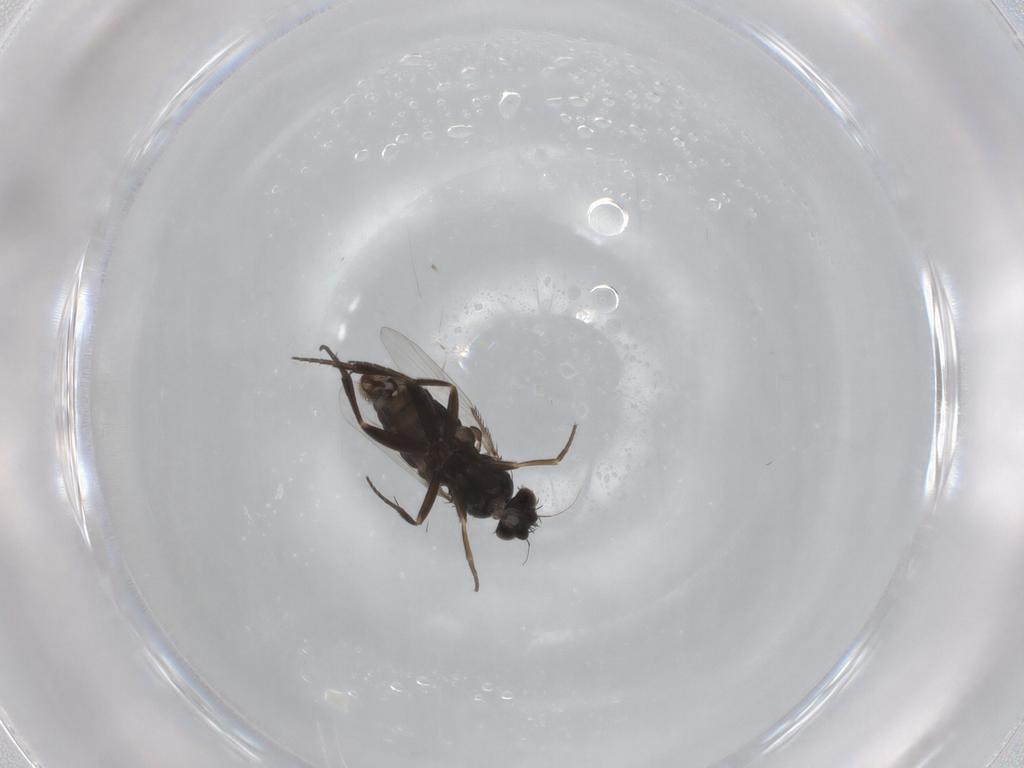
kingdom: Animalia
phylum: Arthropoda
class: Insecta
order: Diptera
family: Phoridae
